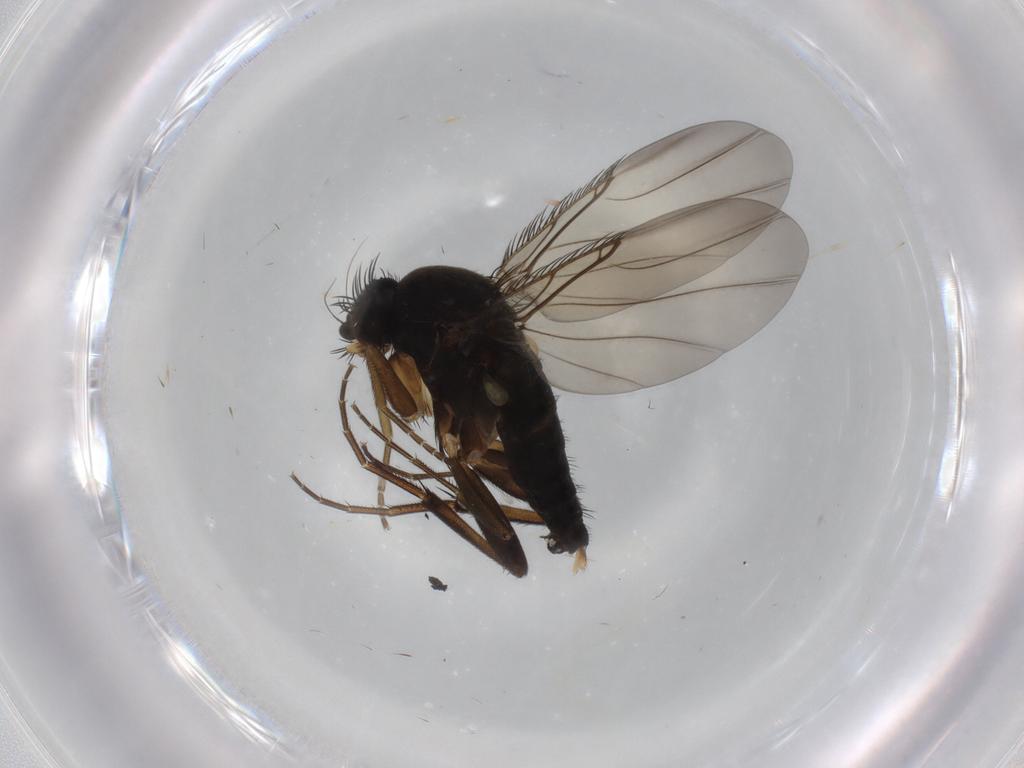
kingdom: Animalia
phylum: Arthropoda
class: Insecta
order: Diptera
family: Phoridae
